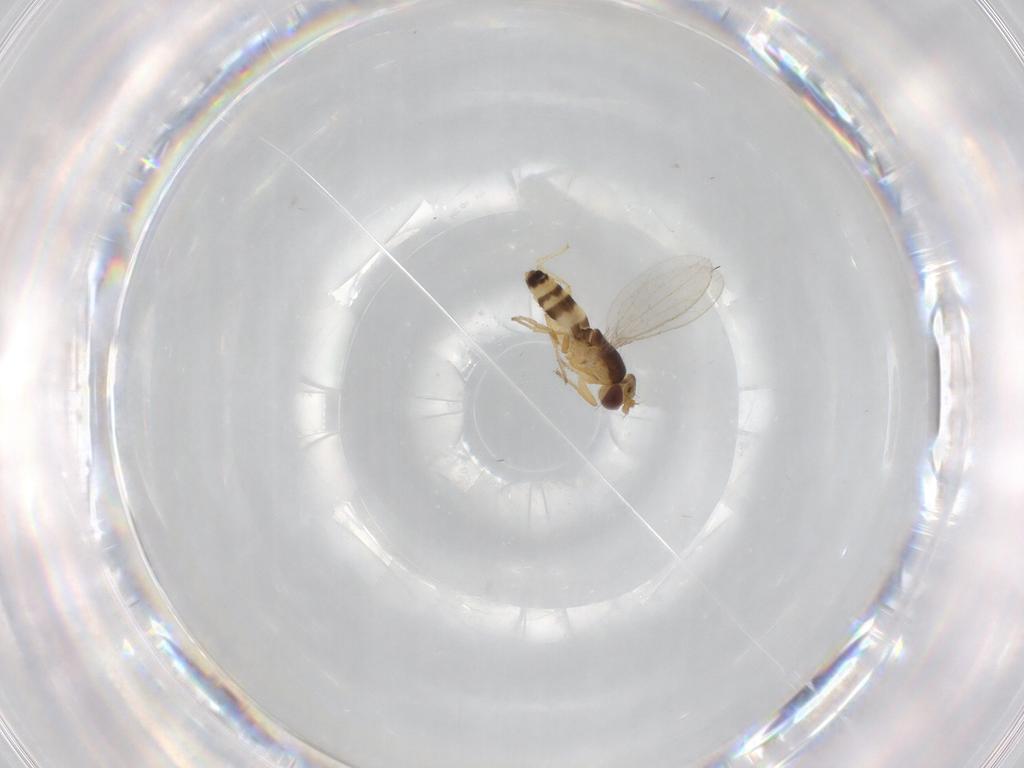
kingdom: Animalia
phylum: Arthropoda
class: Insecta
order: Diptera
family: Periscelididae
